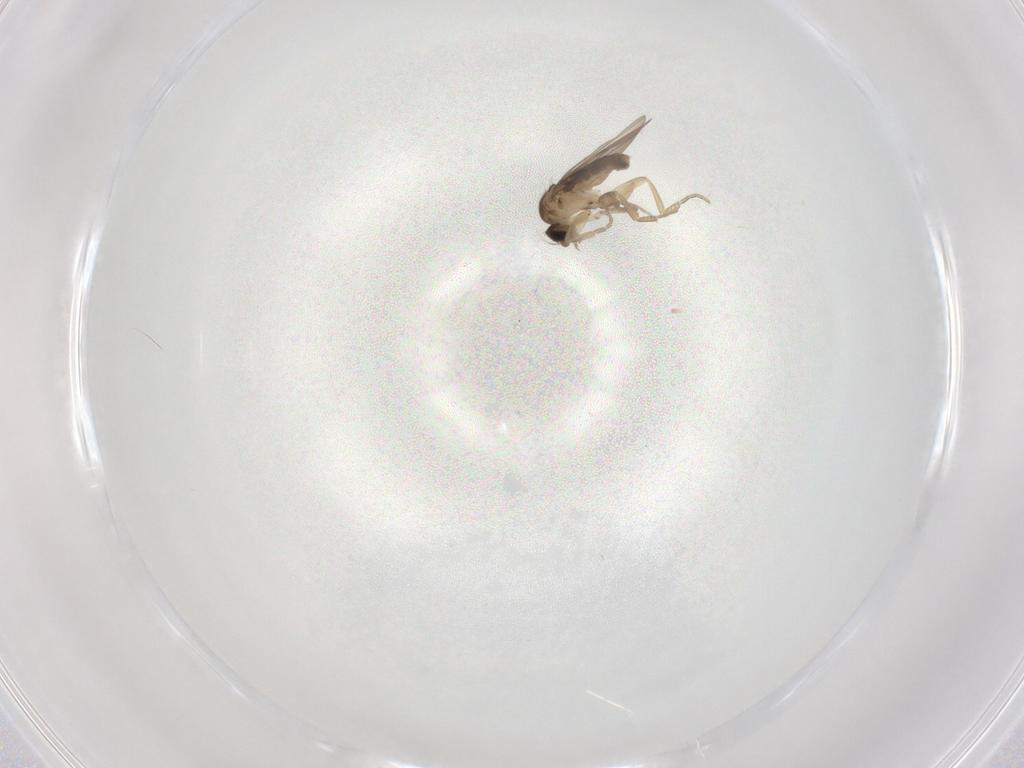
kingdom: Animalia
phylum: Arthropoda
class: Insecta
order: Diptera
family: Phoridae
